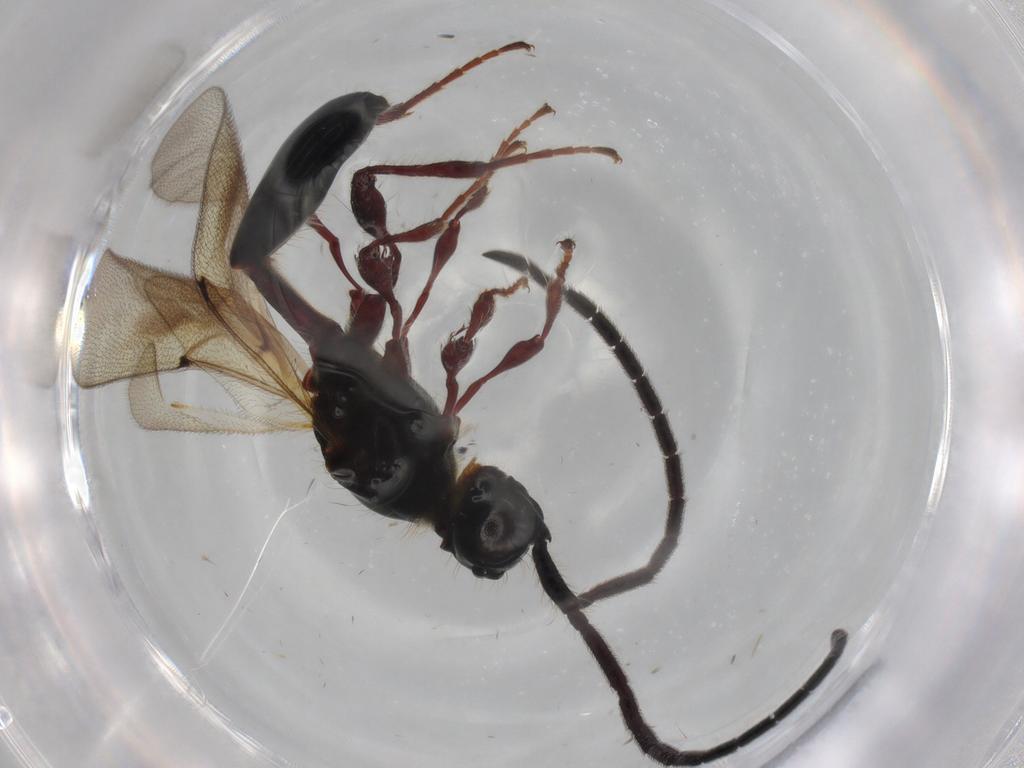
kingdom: Animalia
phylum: Arthropoda
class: Insecta
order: Hymenoptera
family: Diapriidae
